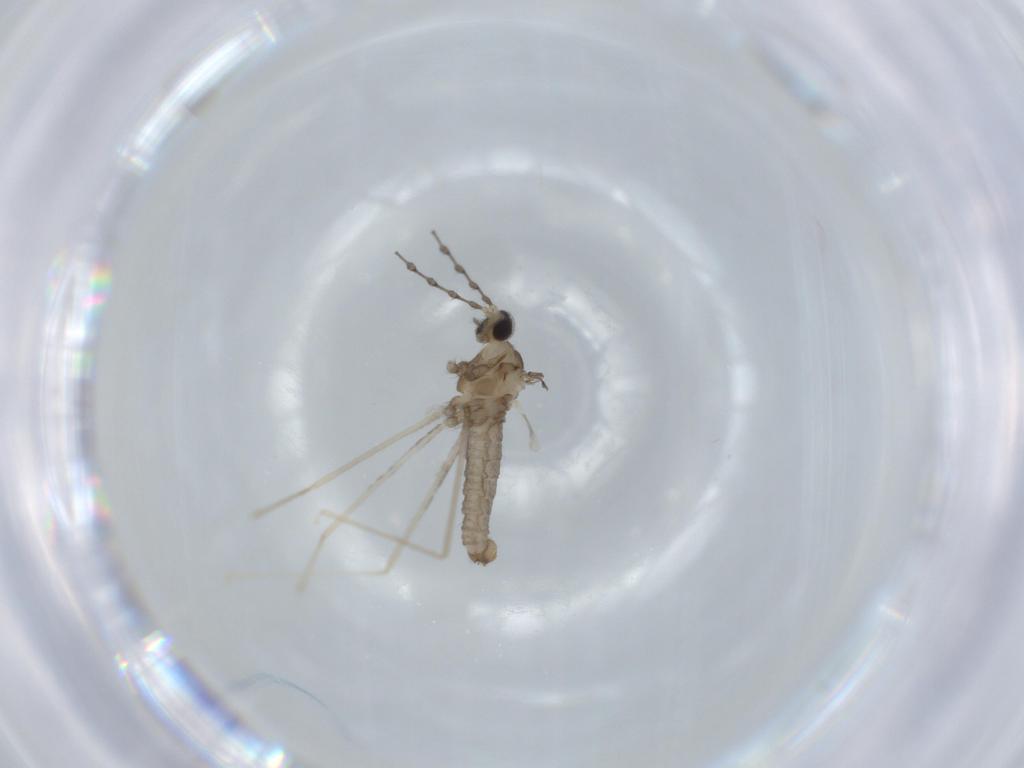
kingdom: Animalia
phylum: Arthropoda
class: Insecta
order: Diptera
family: Cecidomyiidae
